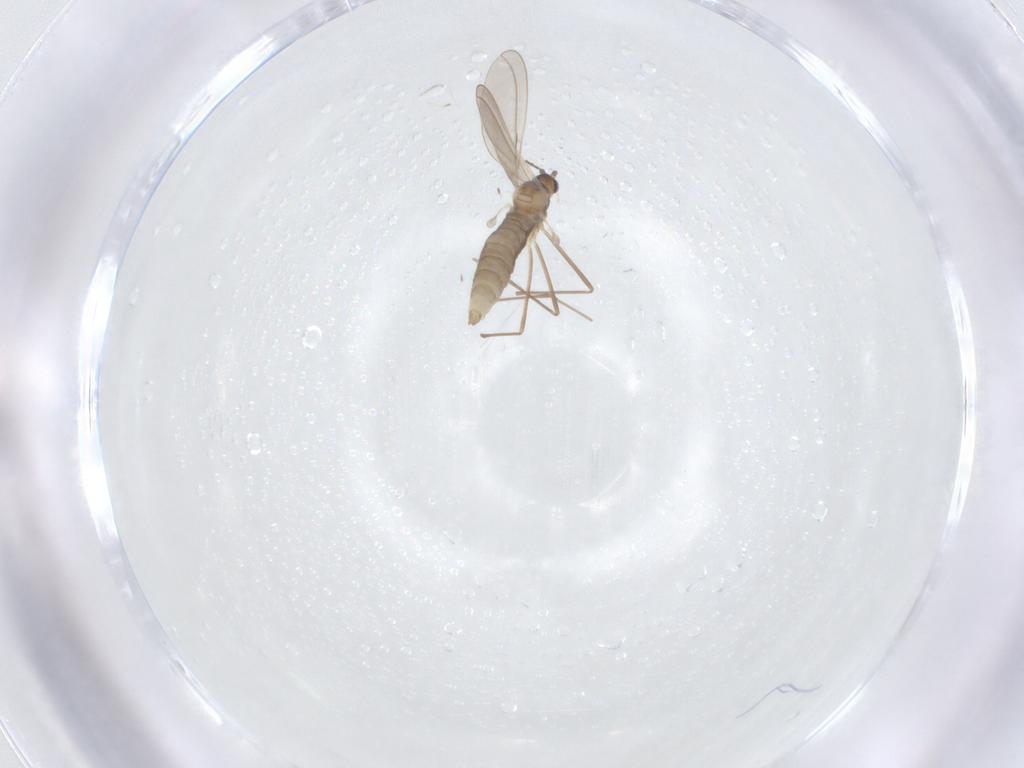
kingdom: Animalia
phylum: Arthropoda
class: Insecta
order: Diptera
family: Cecidomyiidae
